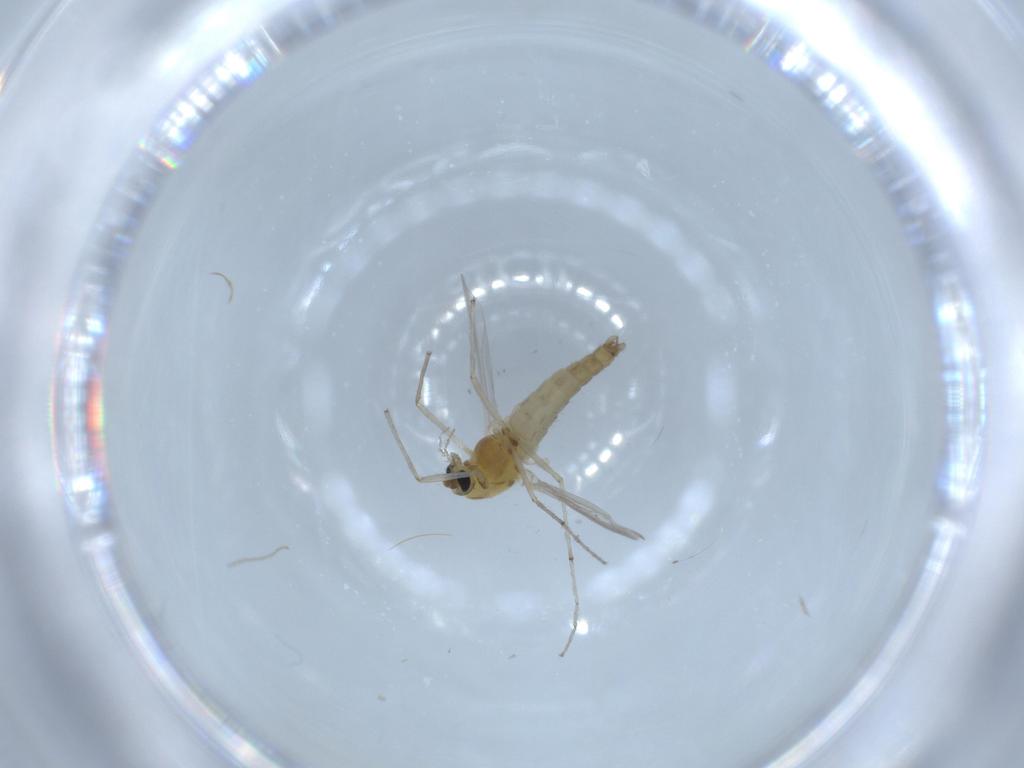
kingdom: Animalia
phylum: Arthropoda
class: Insecta
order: Diptera
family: Chironomidae
